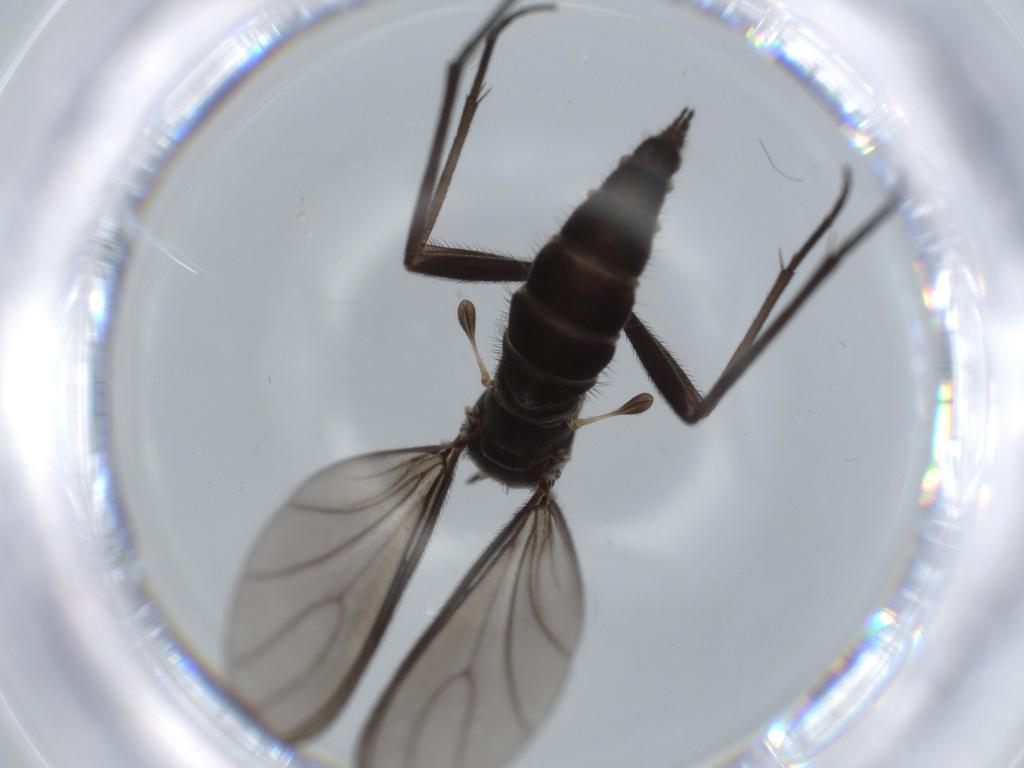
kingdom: Animalia
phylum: Arthropoda
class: Insecta
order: Diptera
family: Sciaridae
